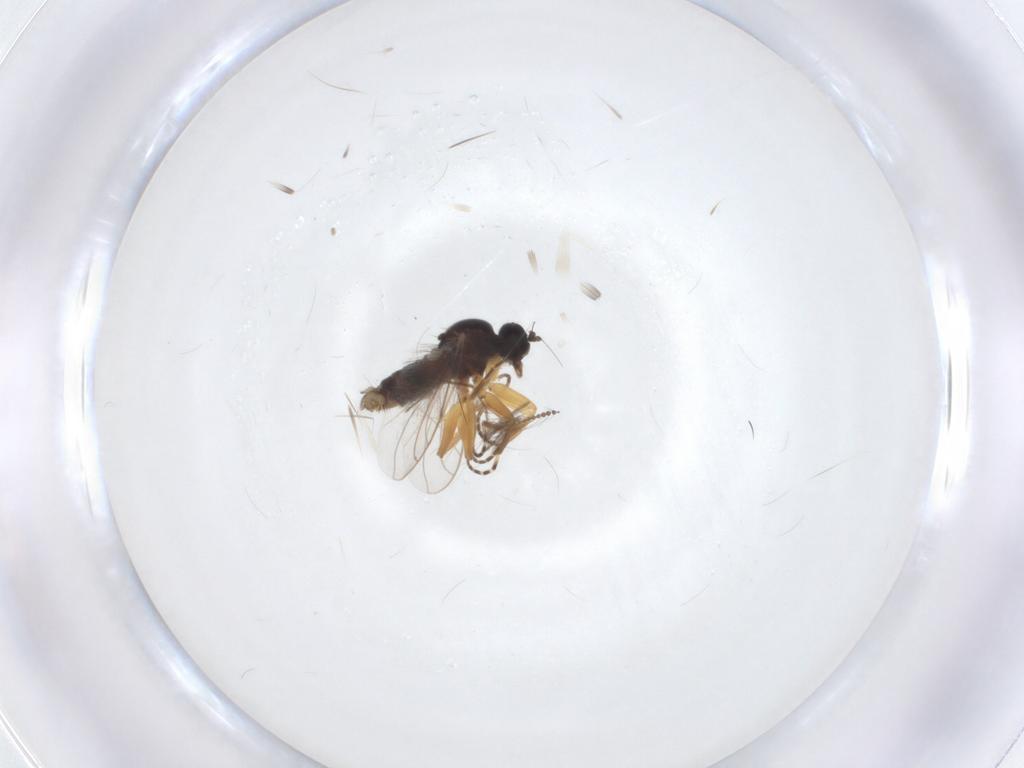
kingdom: Animalia
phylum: Arthropoda
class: Insecta
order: Diptera
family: Hybotidae
